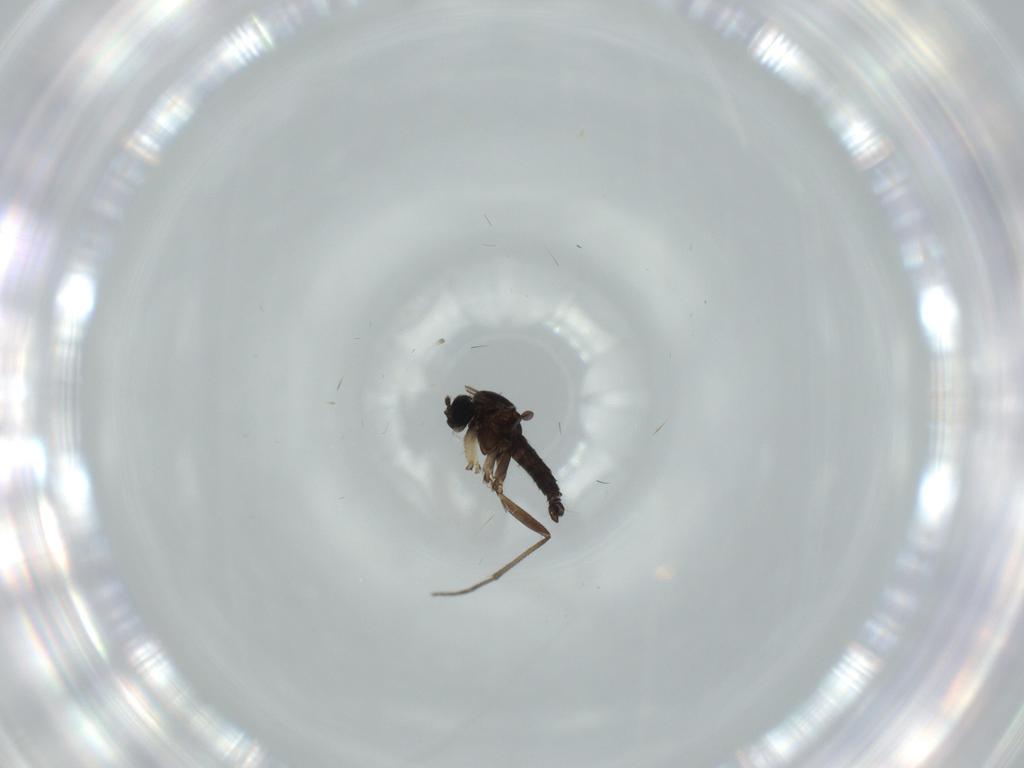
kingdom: Animalia
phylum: Arthropoda
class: Insecta
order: Diptera
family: Sciaridae
